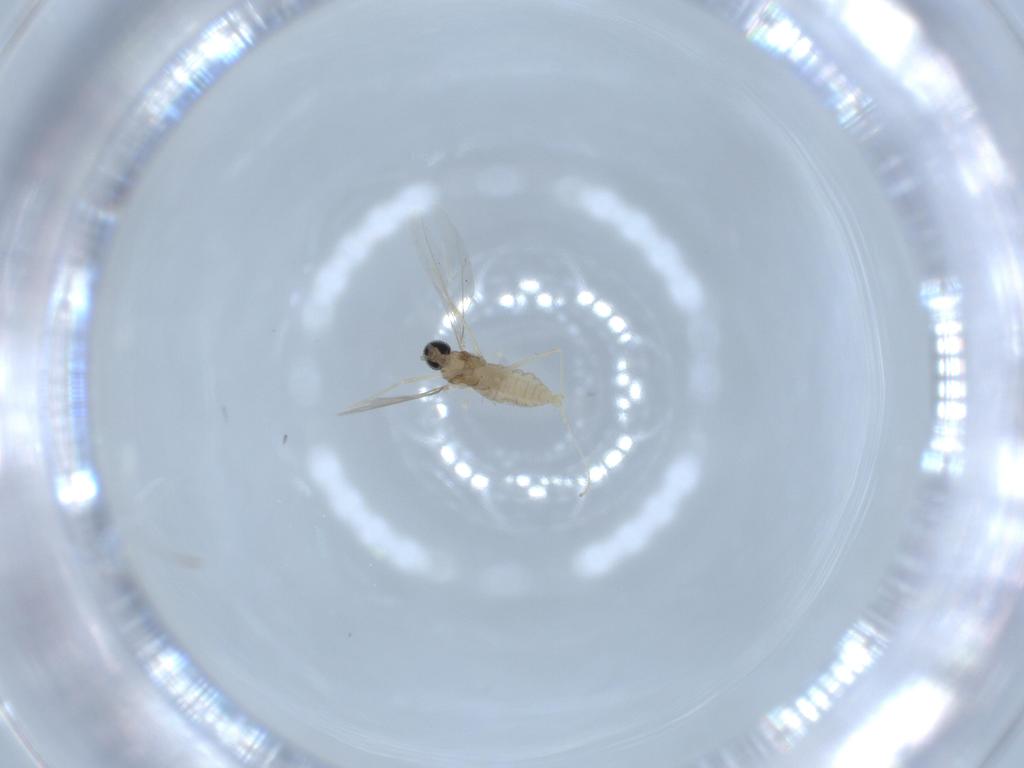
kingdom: Animalia
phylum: Arthropoda
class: Insecta
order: Diptera
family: Cecidomyiidae
